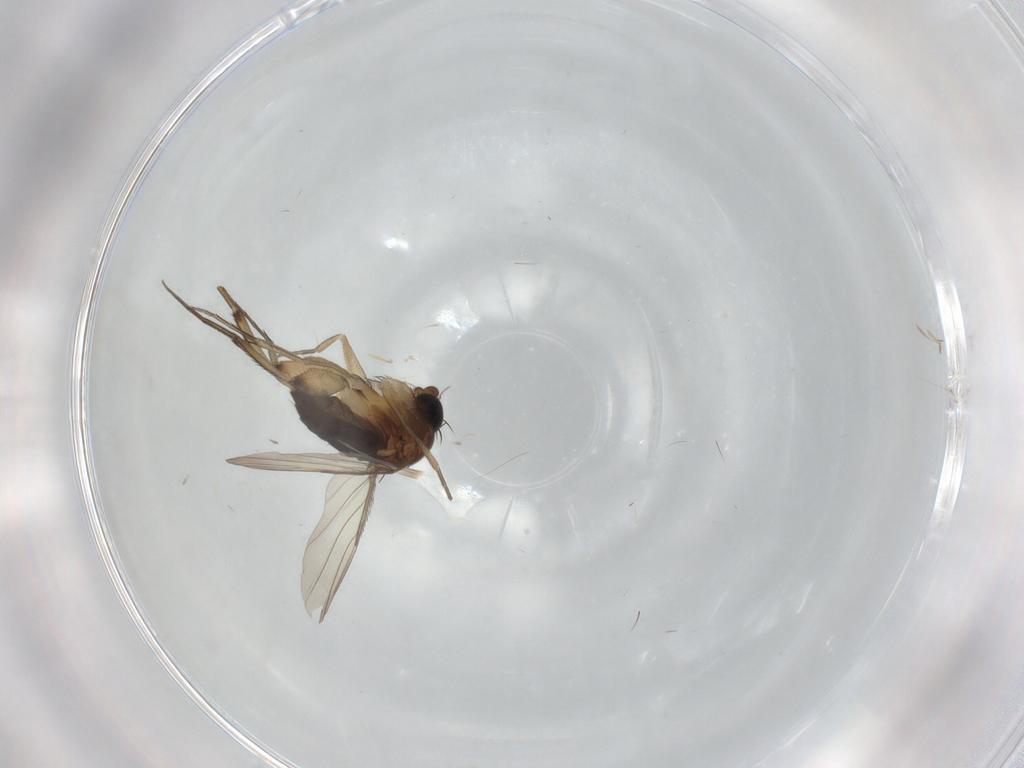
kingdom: Animalia
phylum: Arthropoda
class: Insecta
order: Diptera
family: Phoridae
